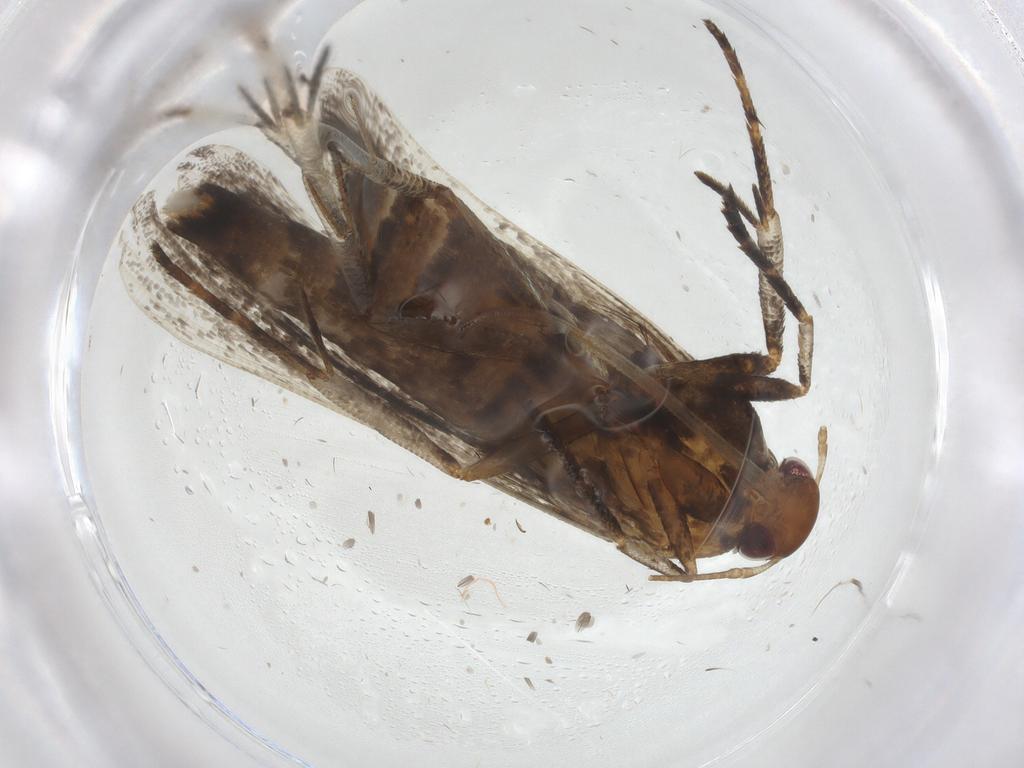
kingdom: Animalia
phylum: Arthropoda
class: Insecta
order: Lepidoptera
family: Gelechiidae
